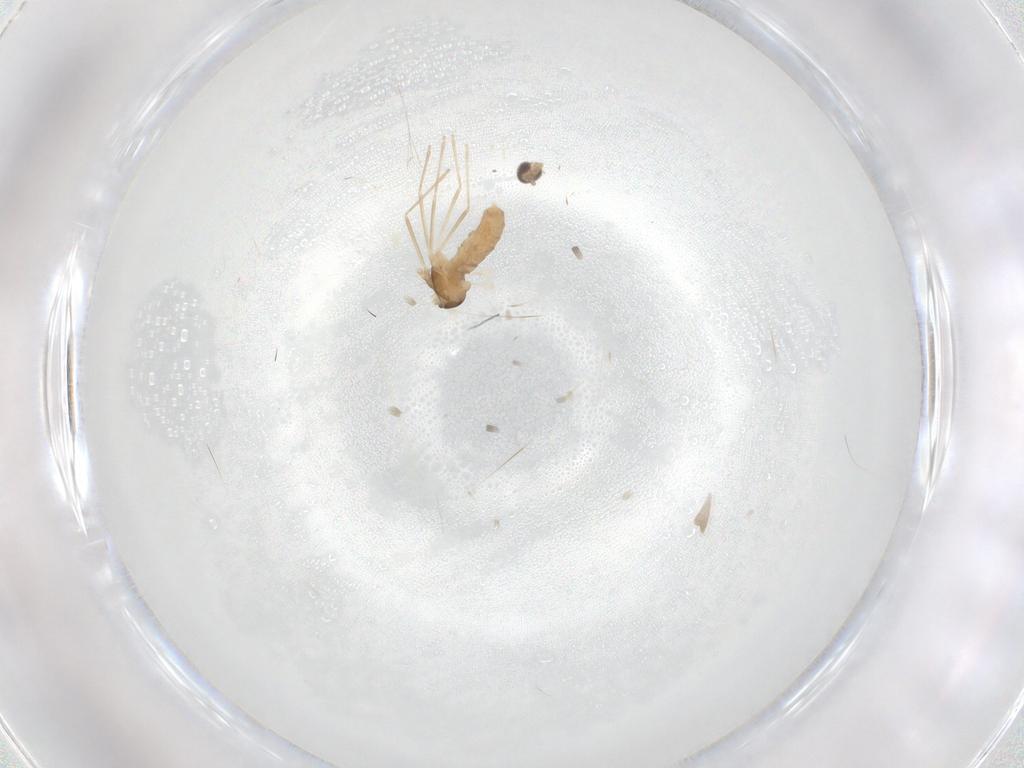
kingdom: Animalia
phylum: Arthropoda
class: Insecta
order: Diptera
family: Cecidomyiidae
